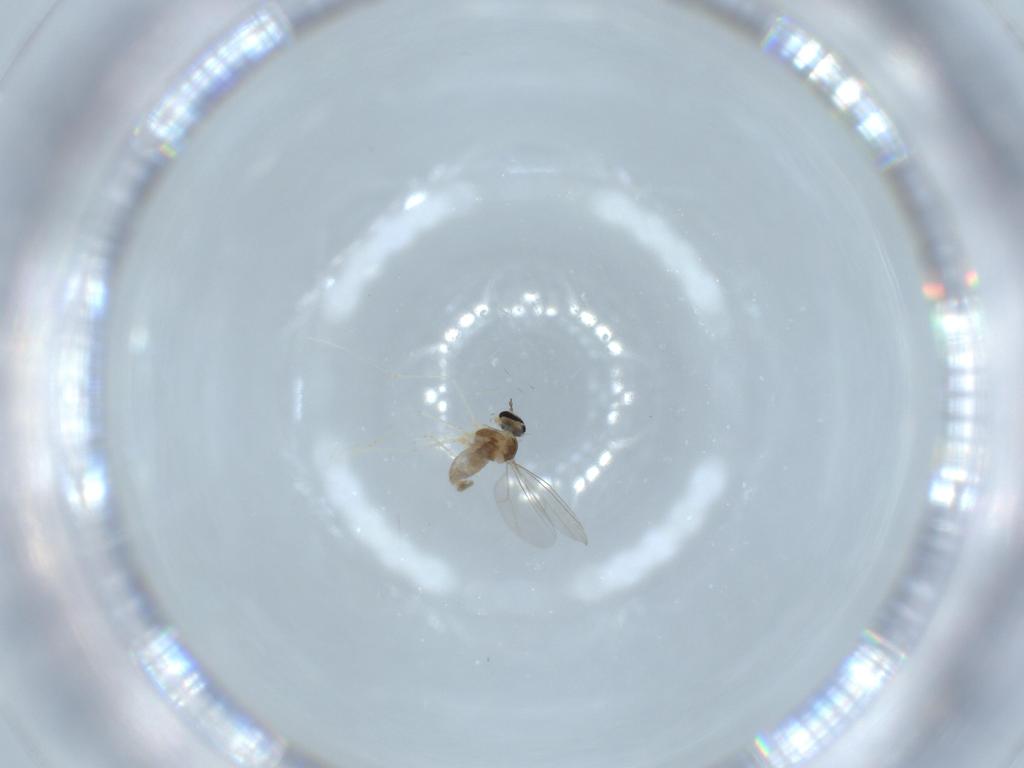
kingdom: Animalia
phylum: Arthropoda
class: Insecta
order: Diptera
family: Cecidomyiidae
